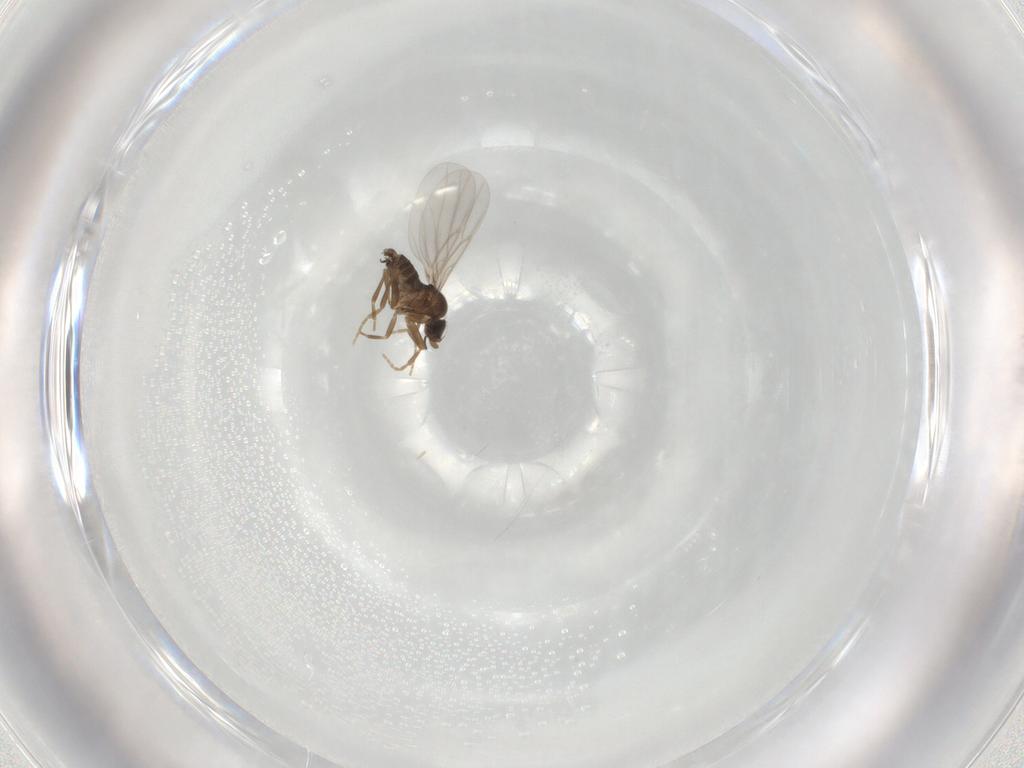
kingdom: Animalia
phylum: Arthropoda
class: Insecta
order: Diptera
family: Phoridae
